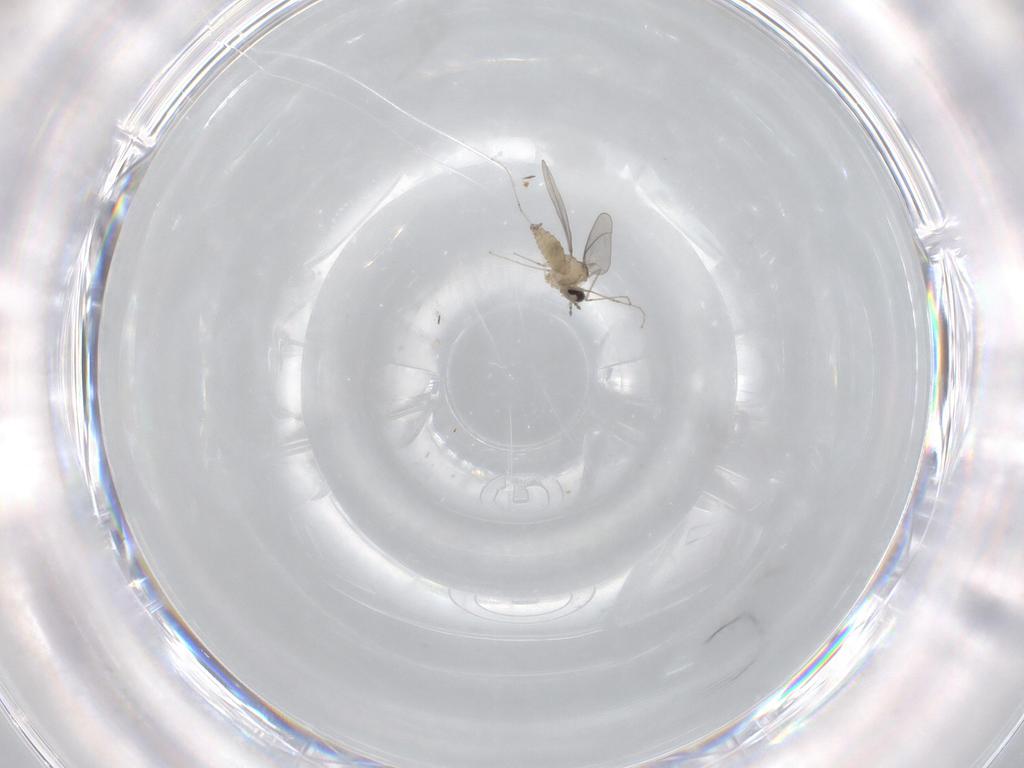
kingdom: Animalia
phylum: Arthropoda
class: Insecta
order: Diptera
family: Cecidomyiidae
